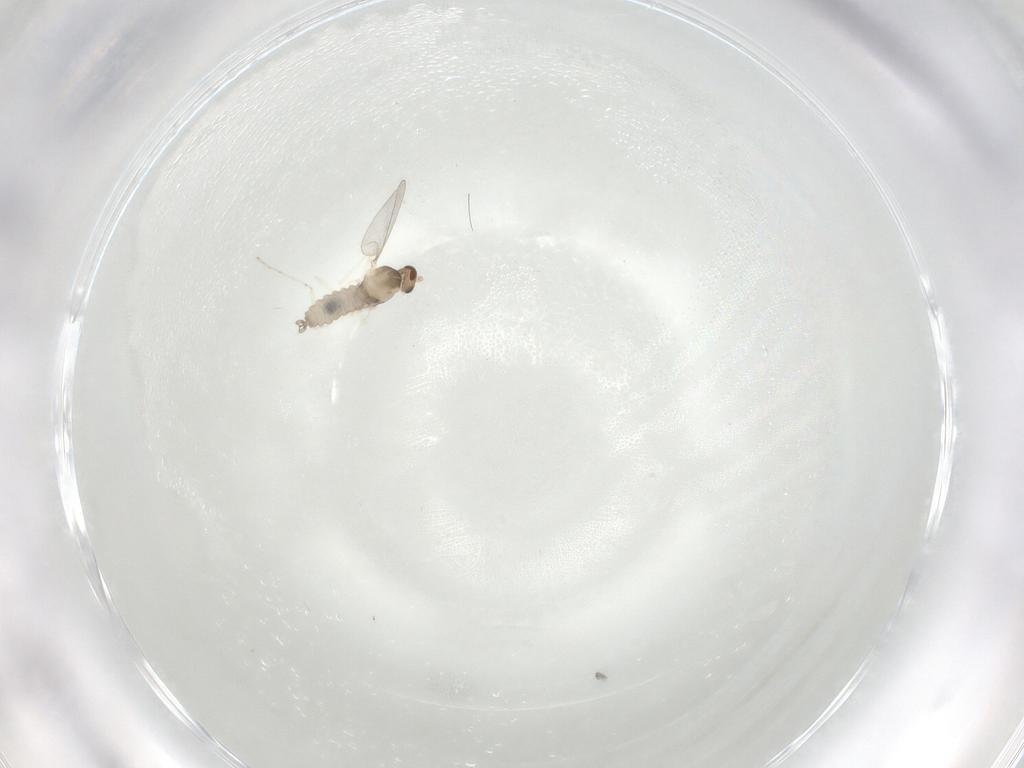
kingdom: Animalia
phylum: Arthropoda
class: Insecta
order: Diptera
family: Cecidomyiidae
